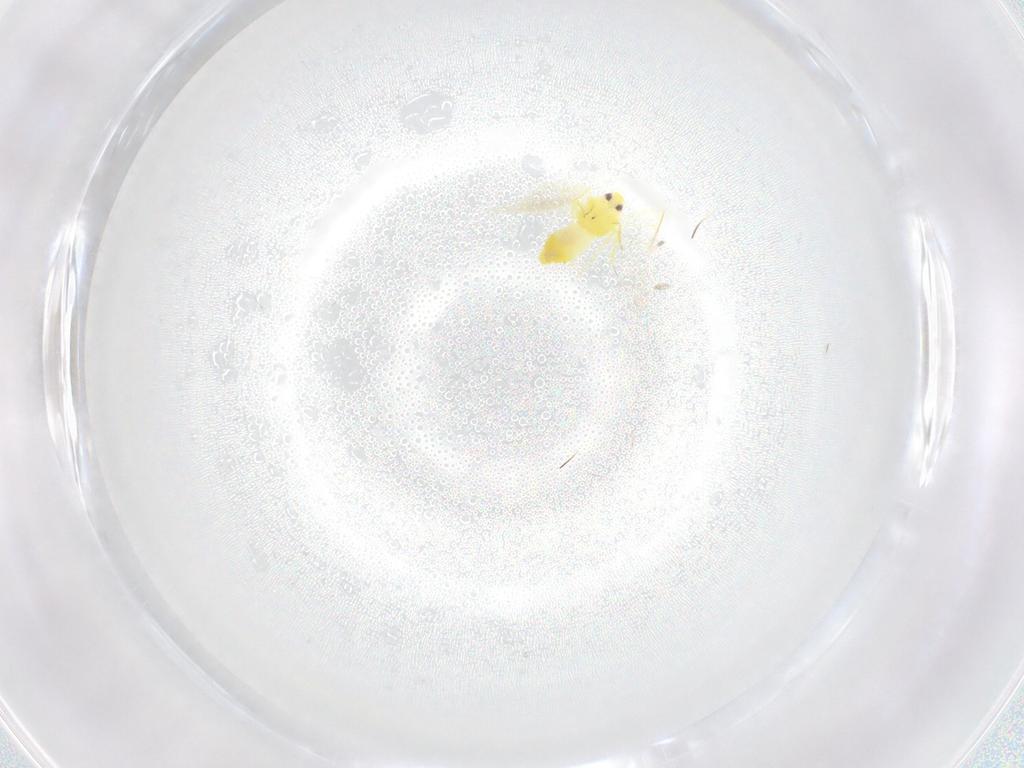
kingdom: Animalia
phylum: Arthropoda
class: Insecta
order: Hemiptera
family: Aleyrodidae
